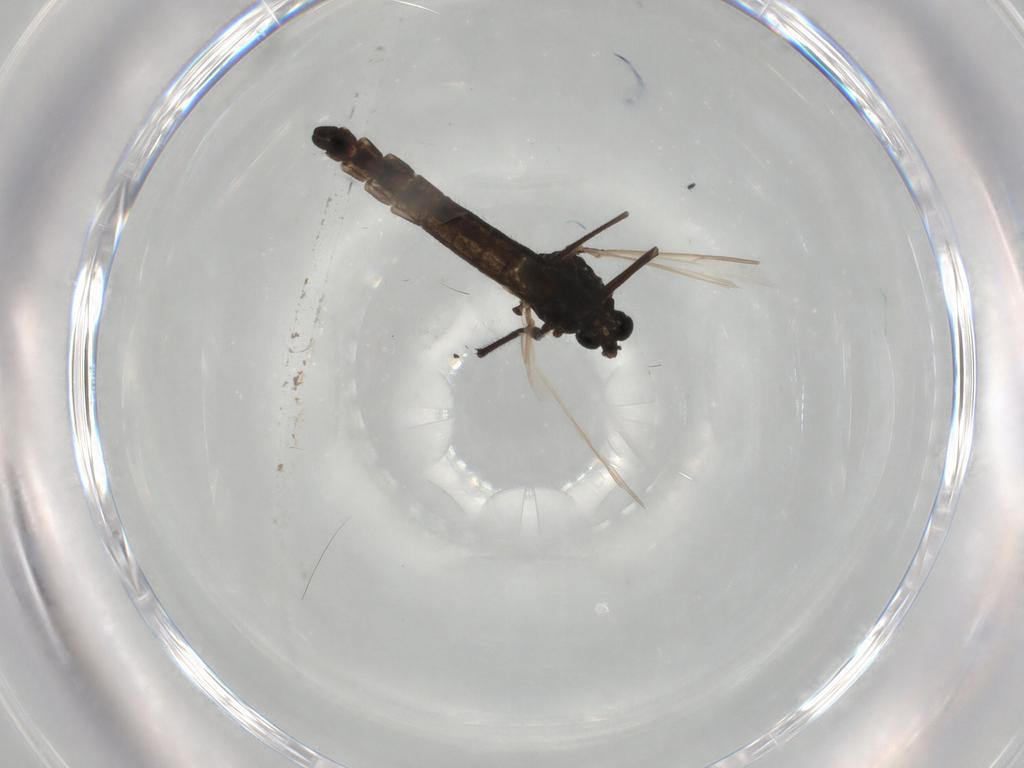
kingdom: Animalia
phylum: Arthropoda
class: Insecta
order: Diptera
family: Chironomidae
